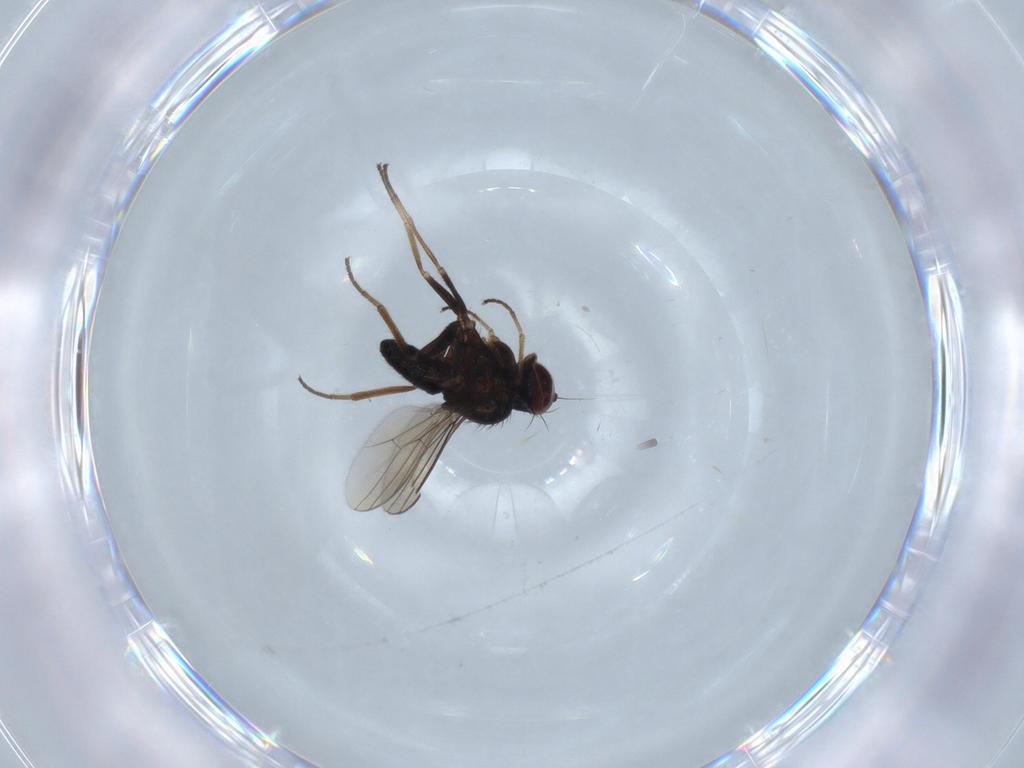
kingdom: Animalia
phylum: Arthropoda
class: Insecta
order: Diptera
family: Dolichopodidae
